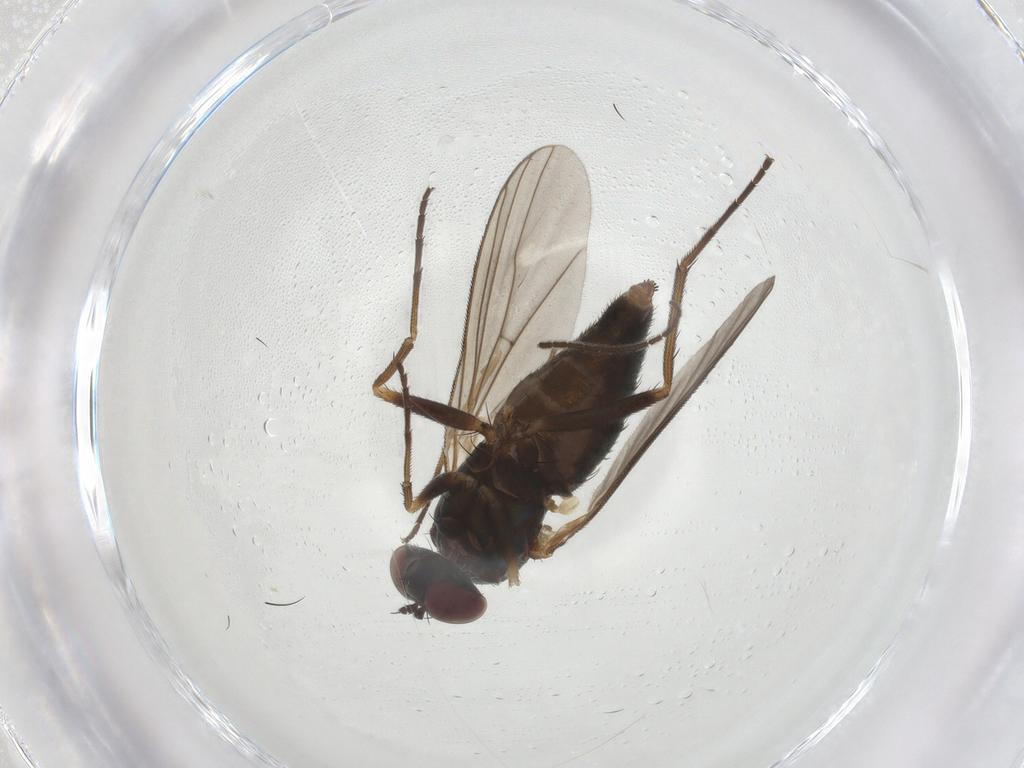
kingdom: Animalia
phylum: Arthropoda
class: Insecta
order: Diptera
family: Dolichopodidae
